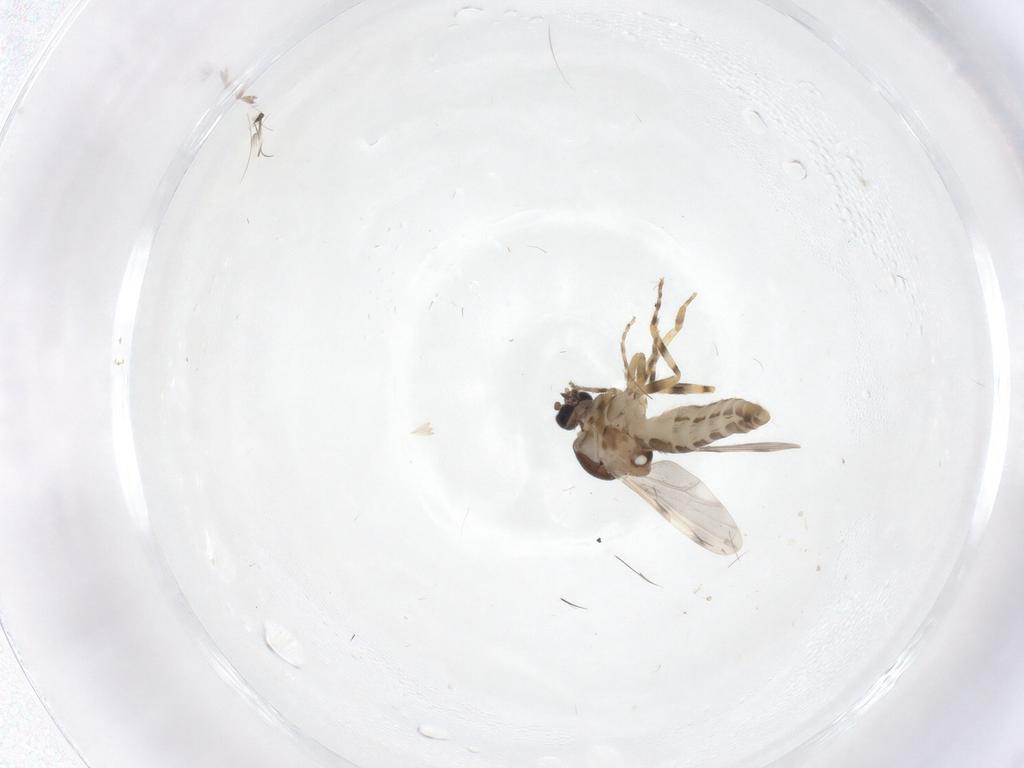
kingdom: Animalia
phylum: Arthropoda
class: Insecta
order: Diptera
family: Ceratopogonidae
